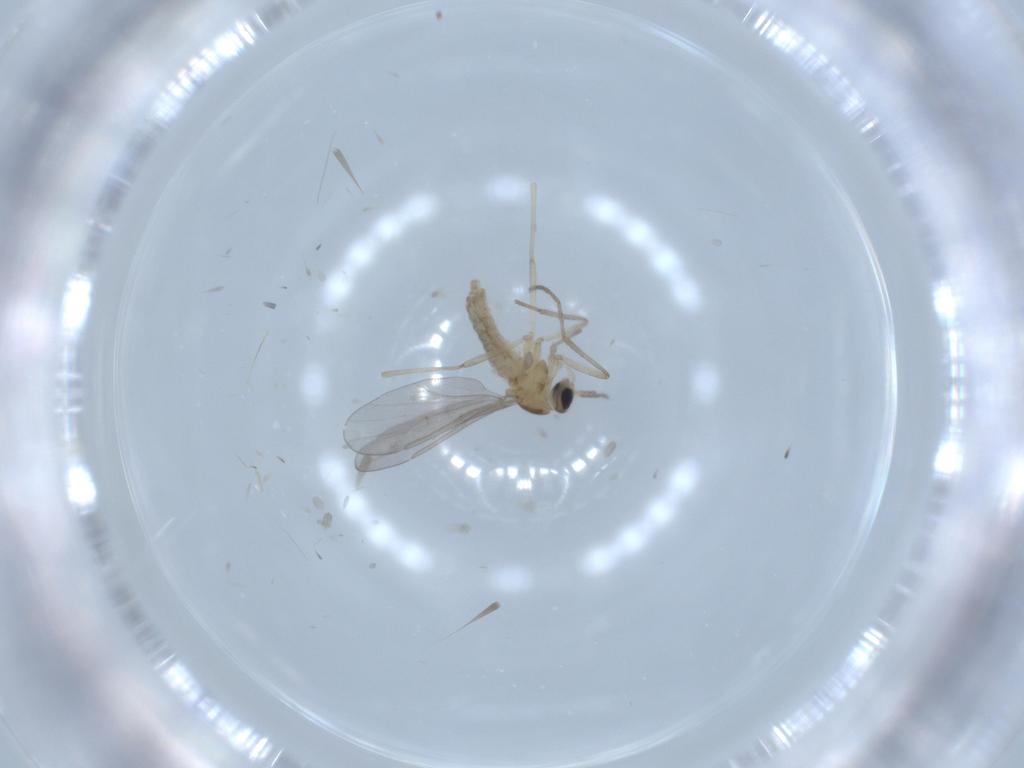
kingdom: Animalia
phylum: Arthropoda
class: Insecta
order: Diptera
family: Cecidomyiidae
